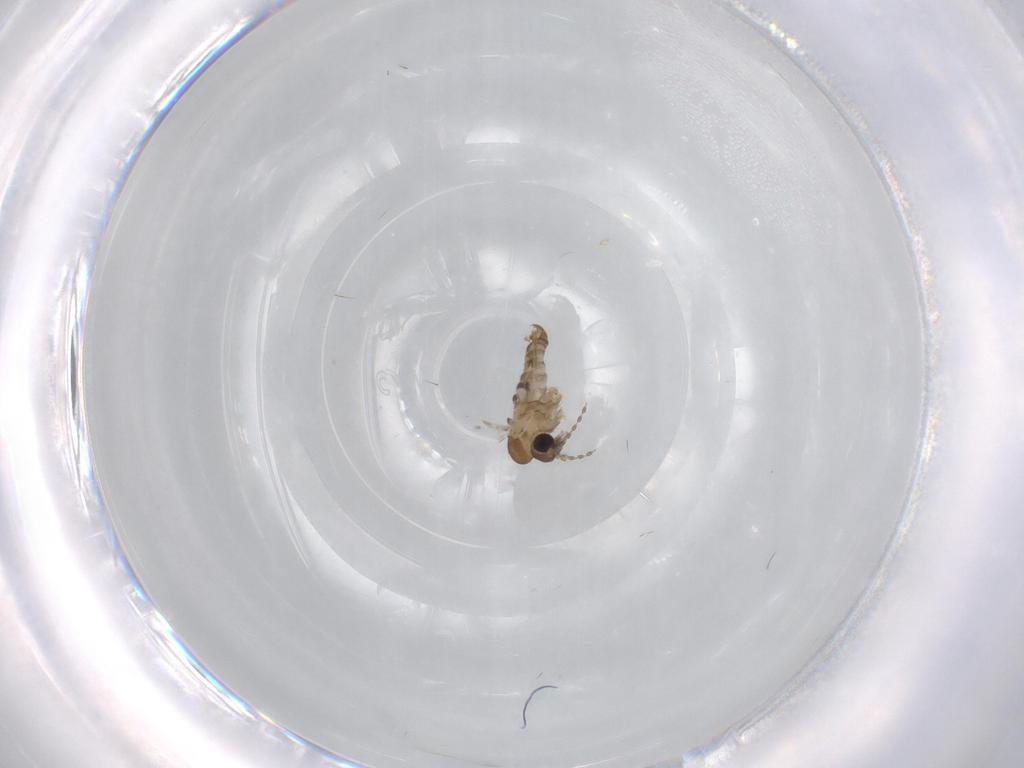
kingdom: Animalia
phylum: Arthropoda
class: Insecta
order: Diptera
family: Psychodidae
